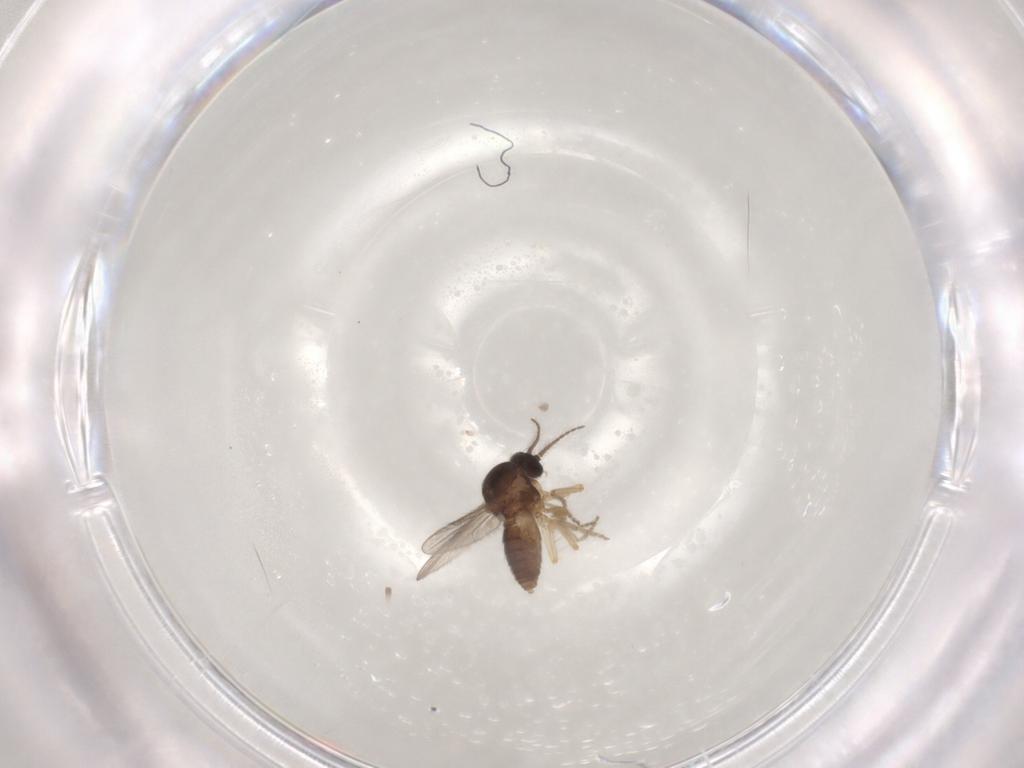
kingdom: Animalia
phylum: Arthropoda
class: Insecta
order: Diptera
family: Ceratopogonidae
